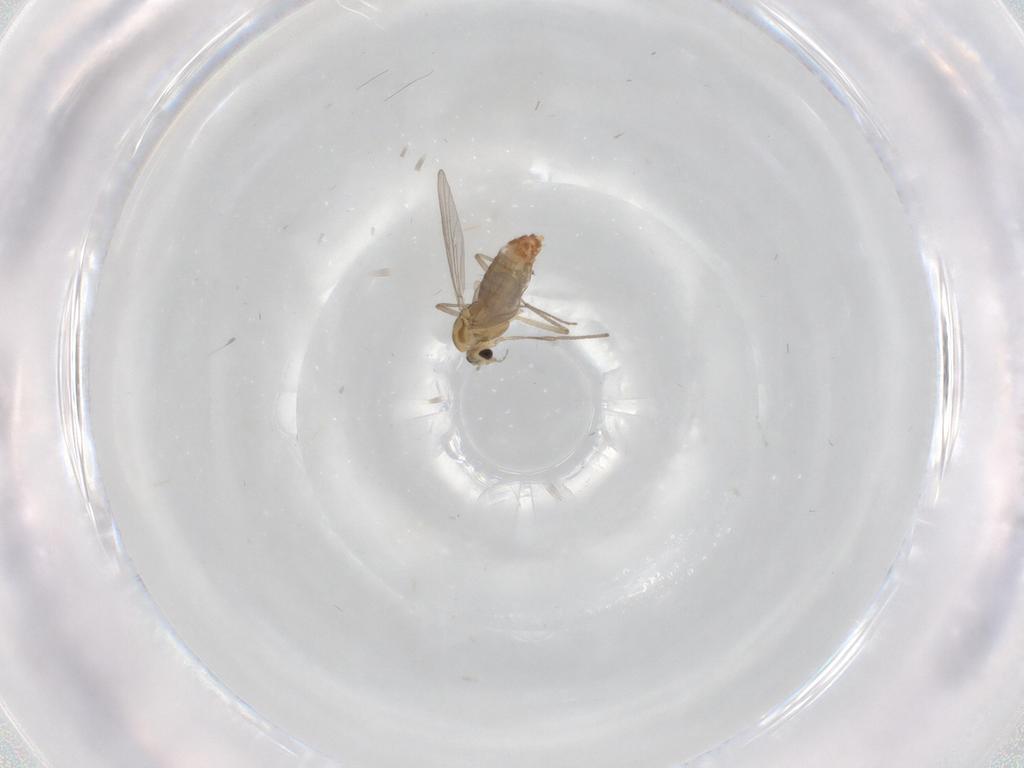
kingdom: Animalia
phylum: Arthropoda
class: Insecta
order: Diptera
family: Chironomidae
